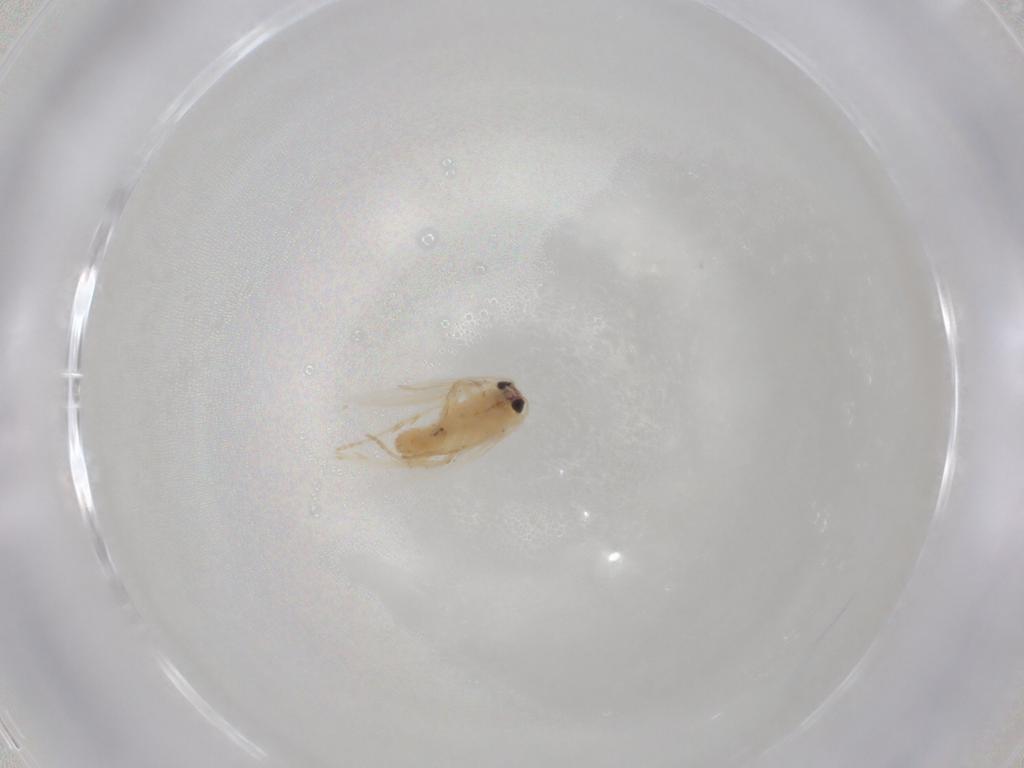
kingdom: Animalia
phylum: Arthropoda
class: Insecta
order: Lepidoptera
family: Nepticulidae
